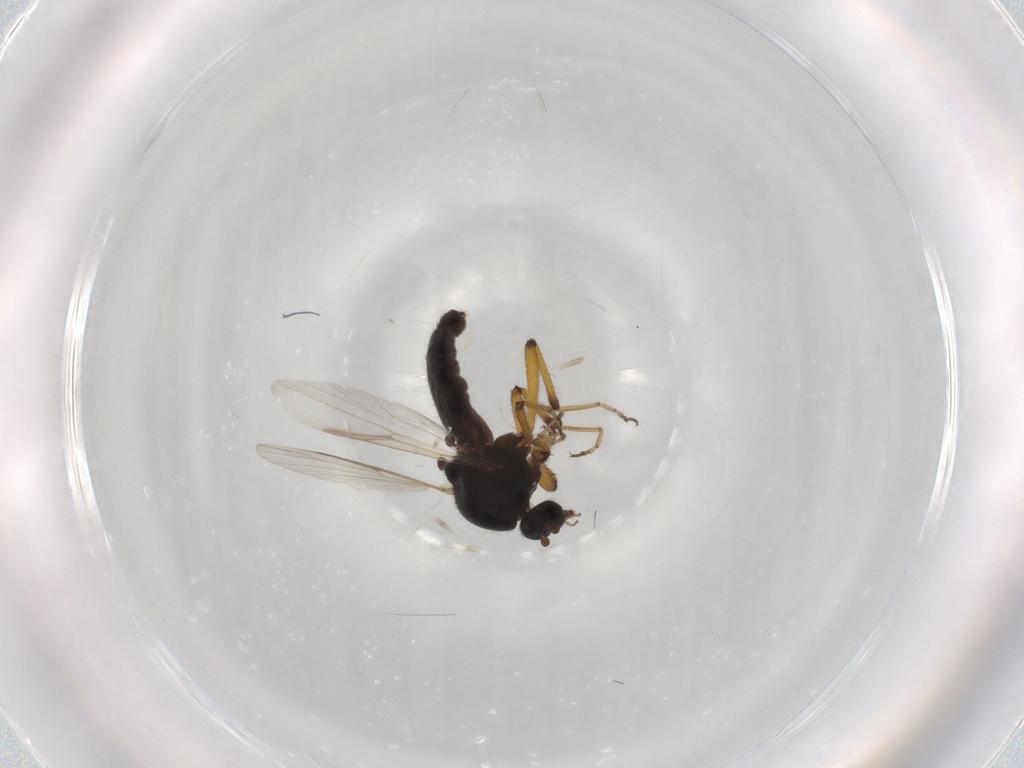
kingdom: Animalia
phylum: Arthropoda
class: Insecta
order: Diptera
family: Ceratopogonidae
